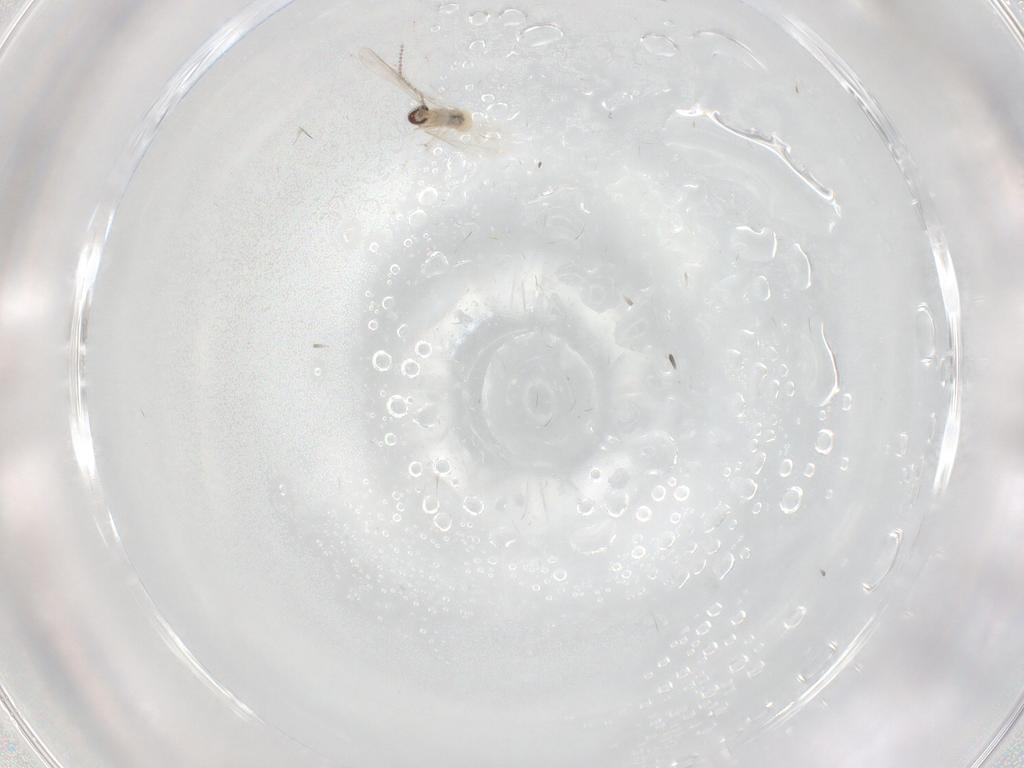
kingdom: Animalia
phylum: Arthropoda
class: Insecta
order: Diptera
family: Cecidomyiidae
